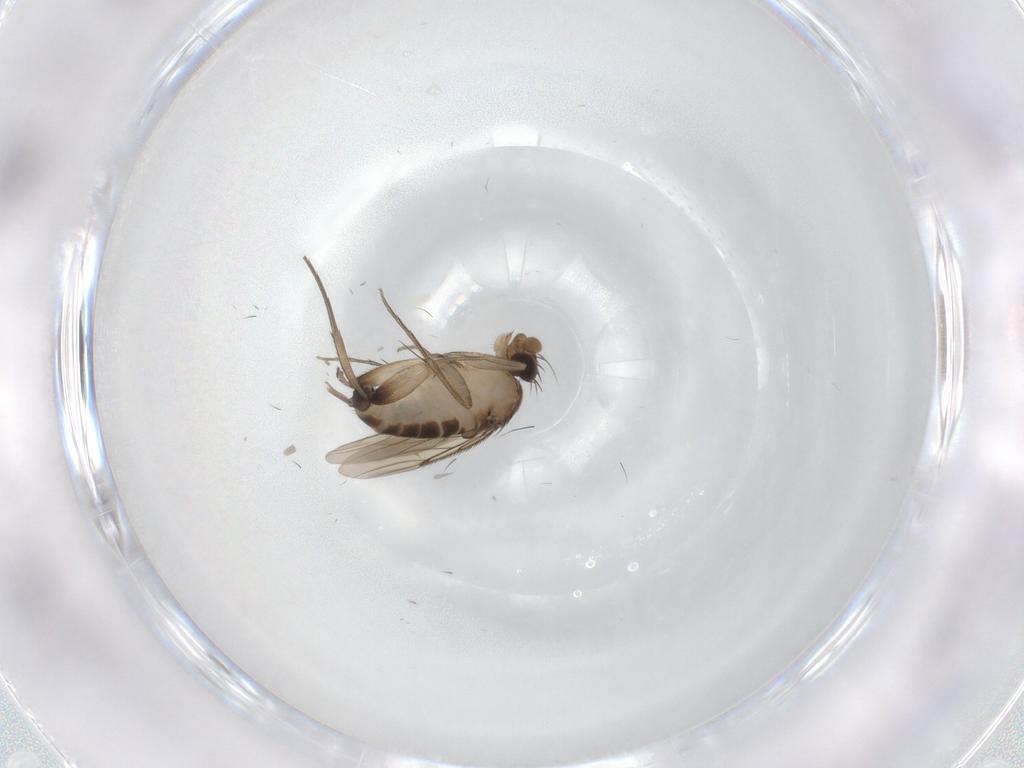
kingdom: Animalia
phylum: Arthropoda
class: Insecta
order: Diptera
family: Phoridae
